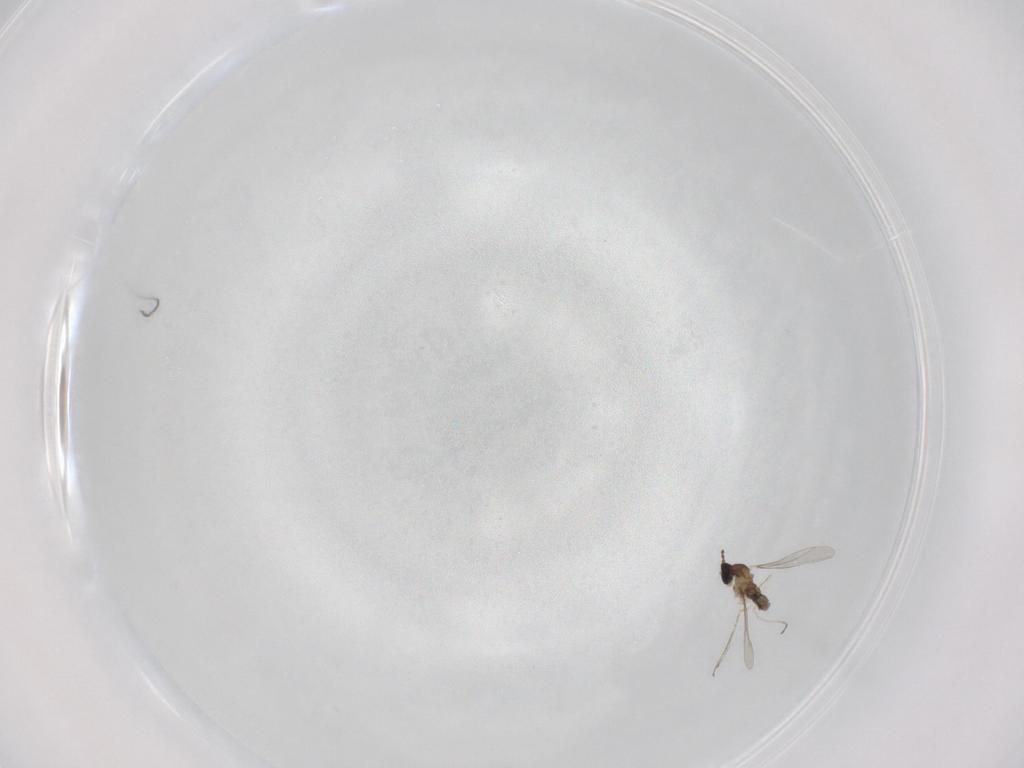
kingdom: Animalia
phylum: Arthropoda
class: Insecta
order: Diptera
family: Cecidomyiidae
